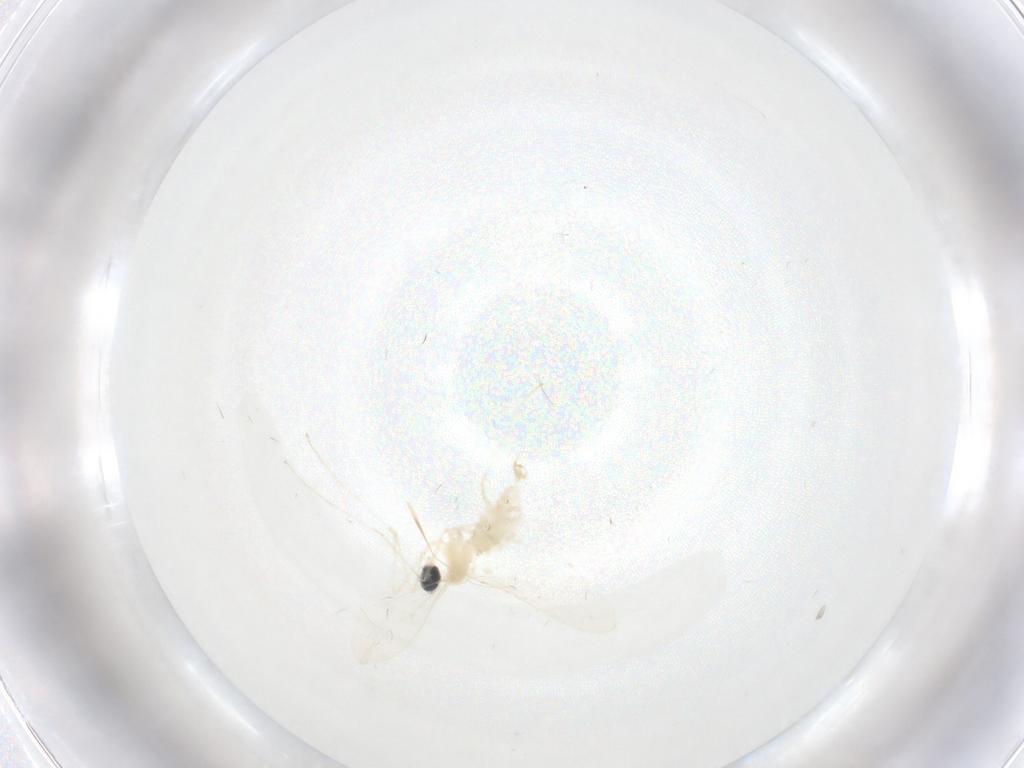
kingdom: Animalia
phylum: Arthropoda
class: Insecta
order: Diptera
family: Cecidomyiidae
